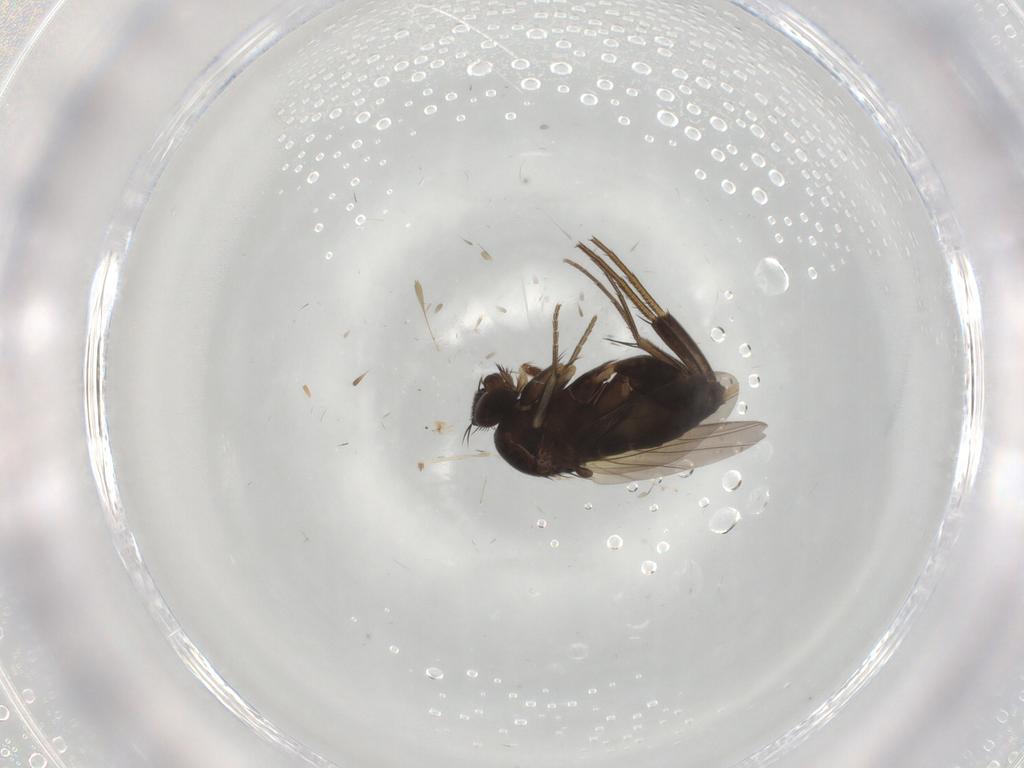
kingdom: Animalia
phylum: Arthropoda
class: Insecta
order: Diptera
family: Phoridae
